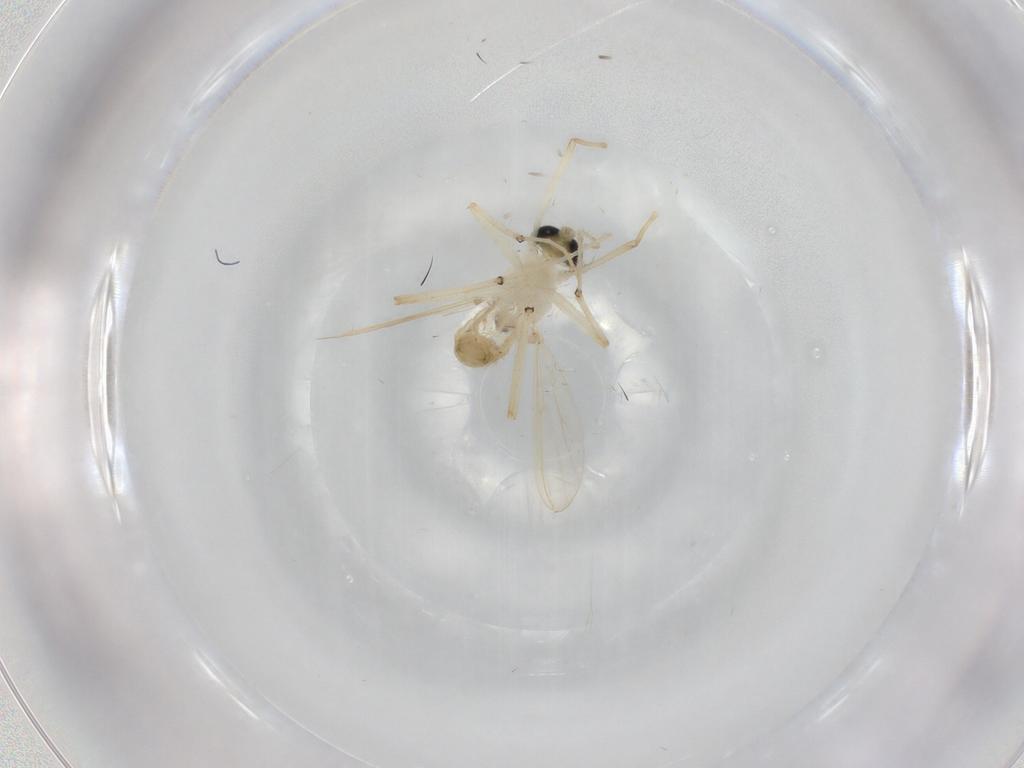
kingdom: Animalia
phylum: Arthropoda
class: Insecta
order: Diptera
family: Chironomidae
